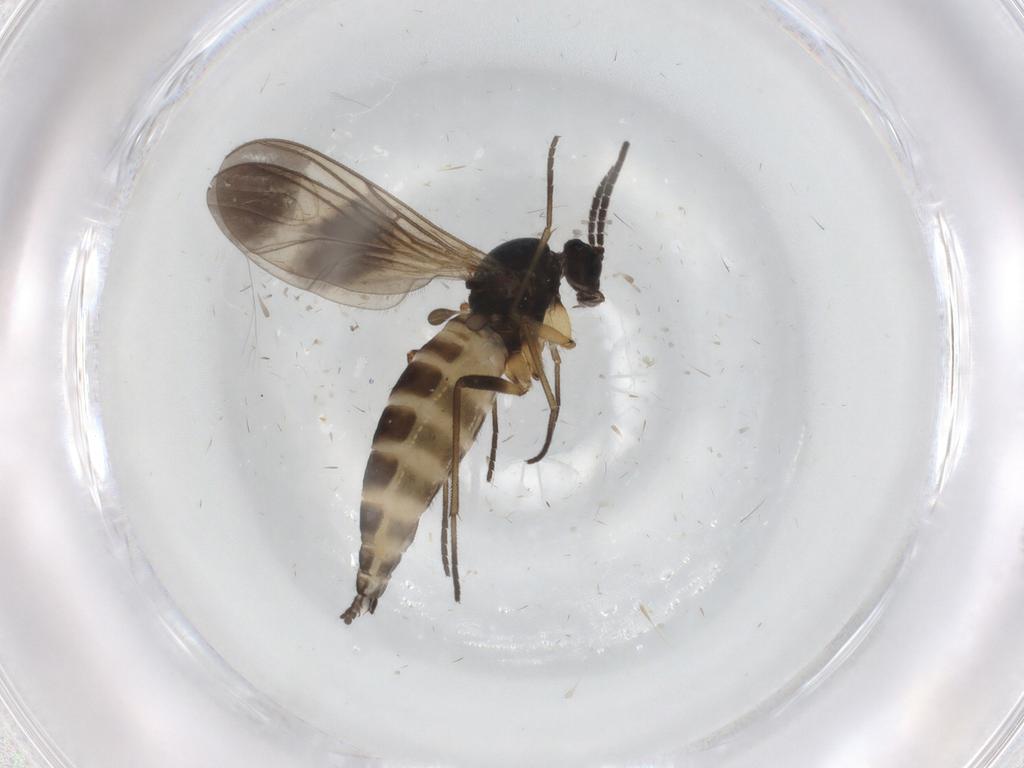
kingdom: Animalia
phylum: Arthropoda
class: Insecta
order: Diptera
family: Sciaridae
